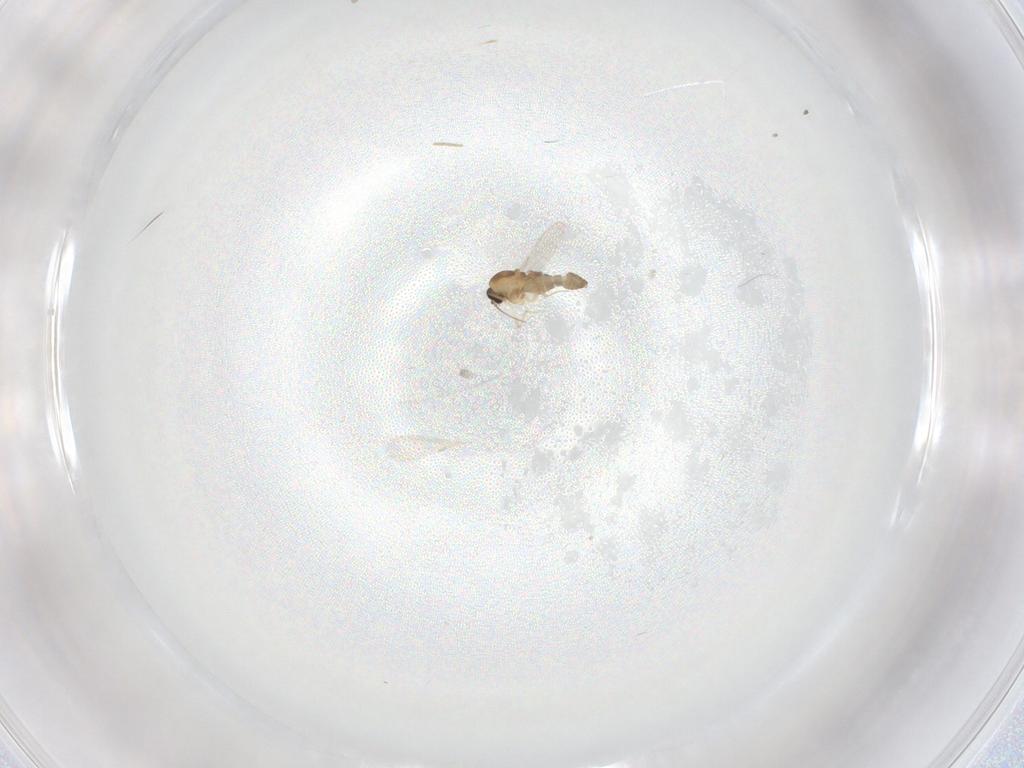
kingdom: Animalia
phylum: Arthropoda
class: Insecta
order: Diptera
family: Ceratopogonidae
